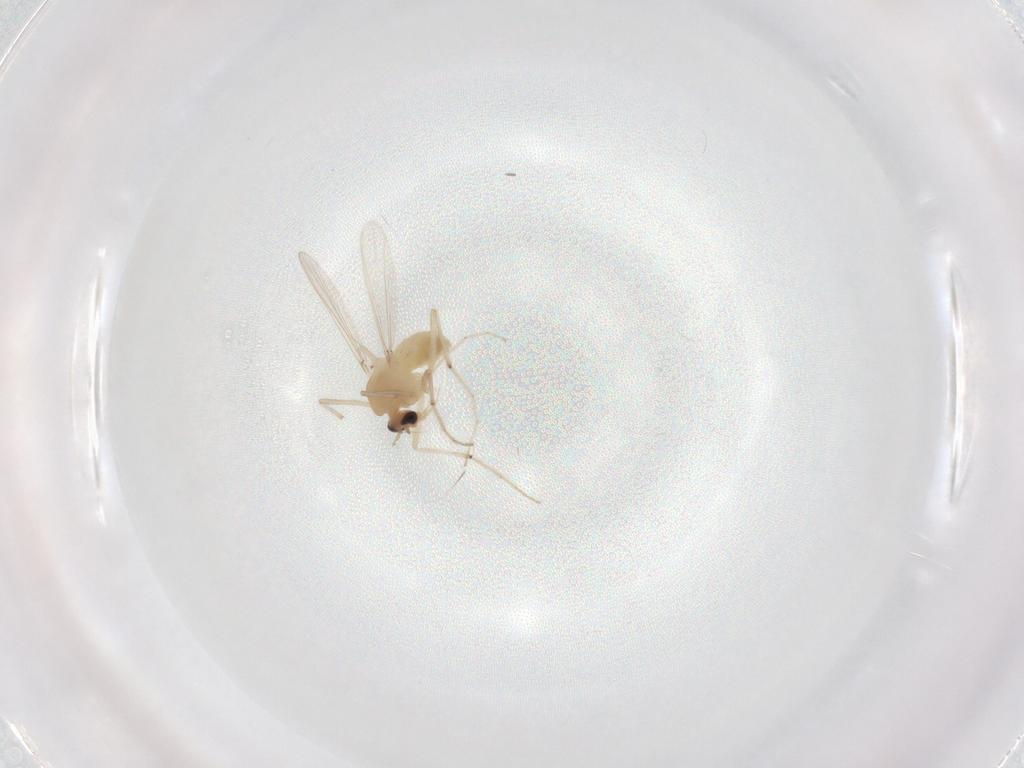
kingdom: Animalia
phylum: Arthropoda
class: Insecta
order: Diptera
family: Chironomidae
